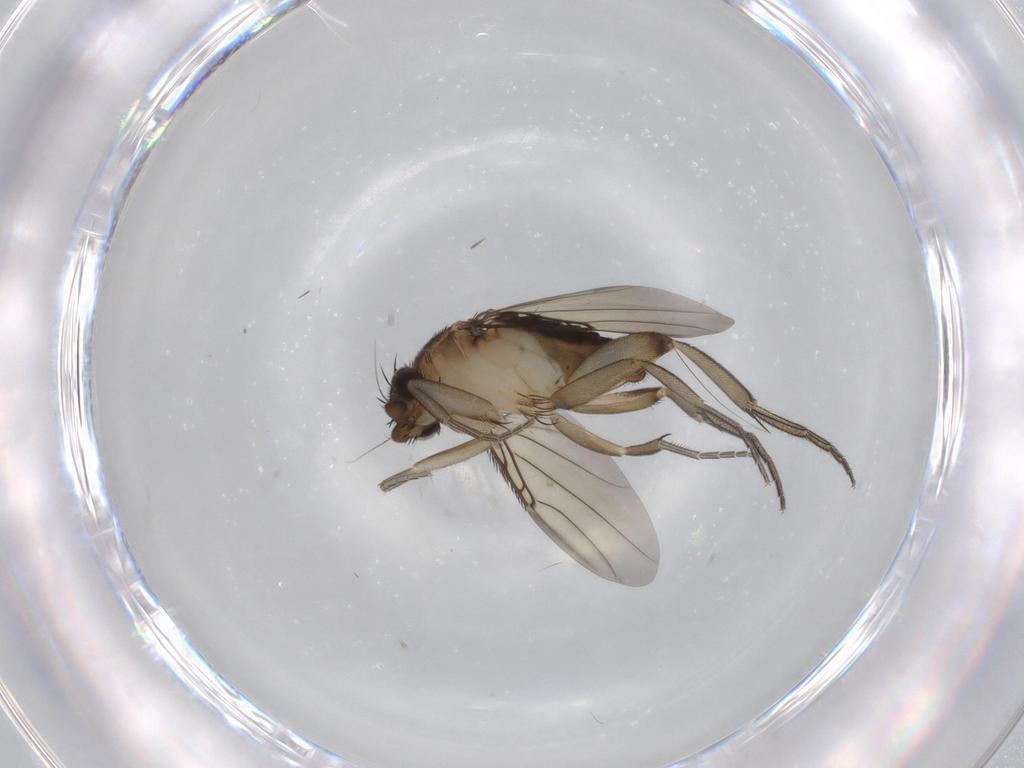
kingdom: Animalia
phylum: Arthropoda
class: Insecta
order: Diptera
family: Phoridae
